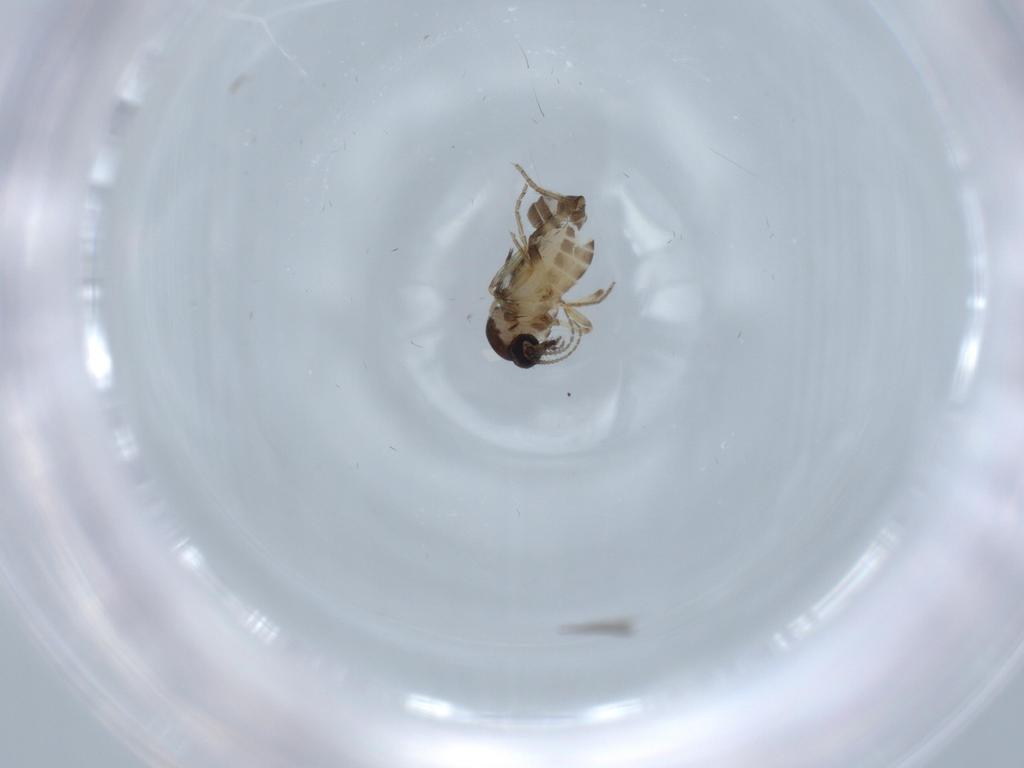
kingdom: Animalia
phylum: Arthropoda
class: Insecta
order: Diptera
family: Ceratopogonidae
